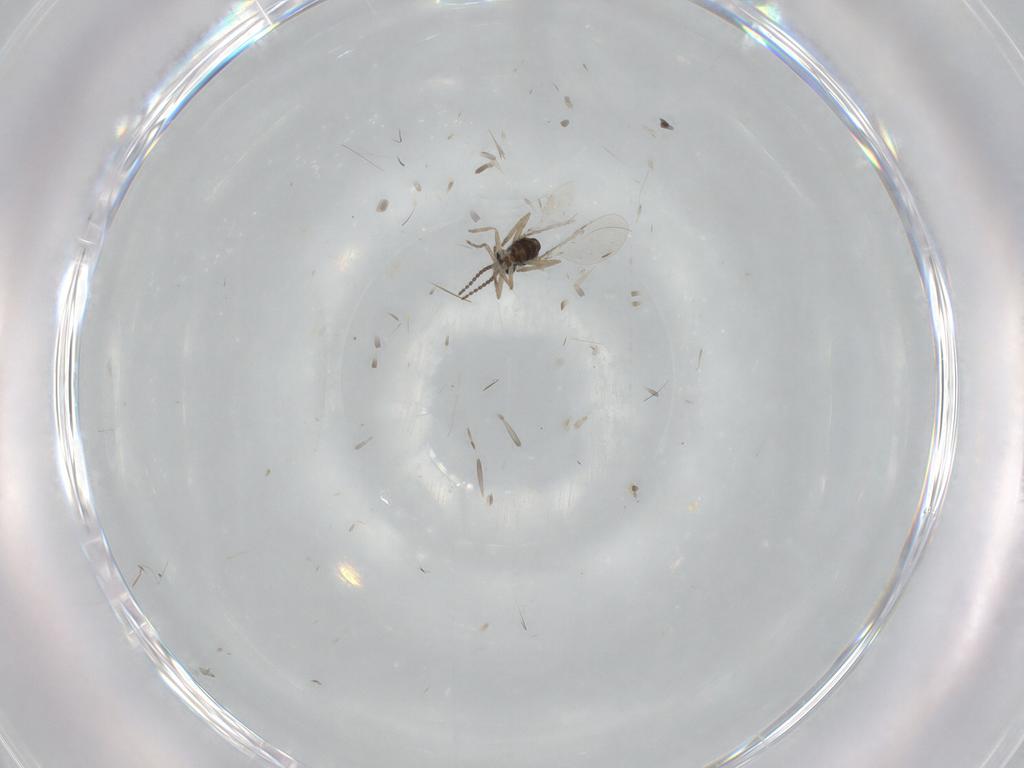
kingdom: Animalia
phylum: Arthropoda
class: Insecta
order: Diptera
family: Cecidomyiidae
